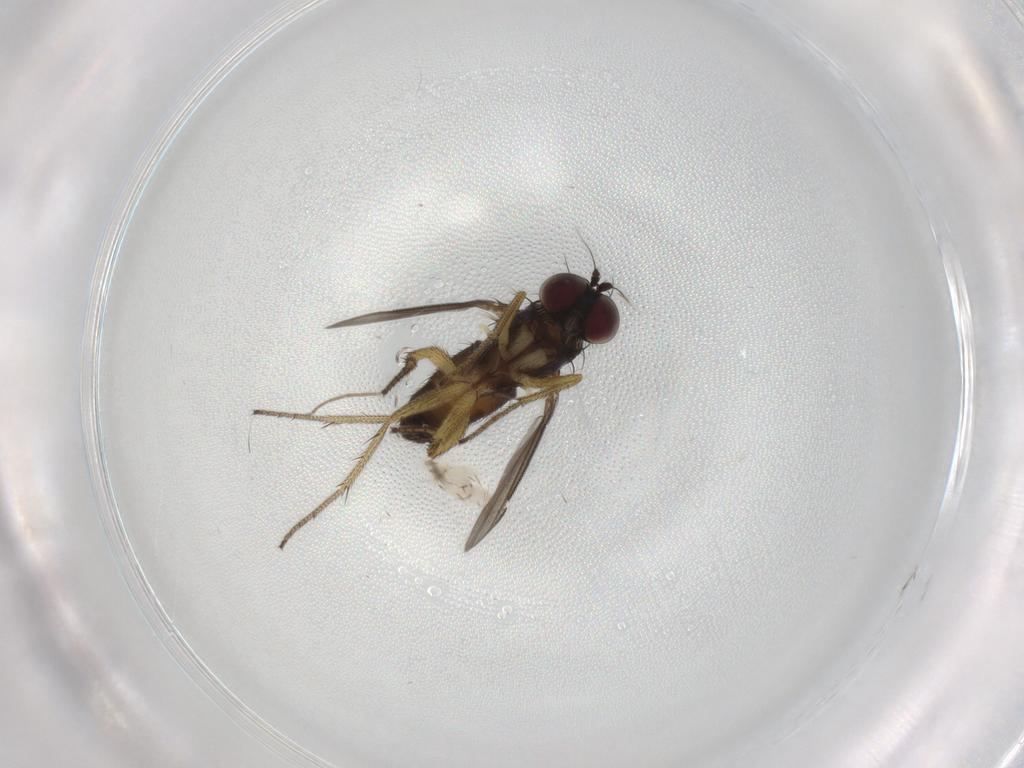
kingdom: Animalia
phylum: Arthropoda
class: Insecta
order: Diptera
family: Dolichopodidae
